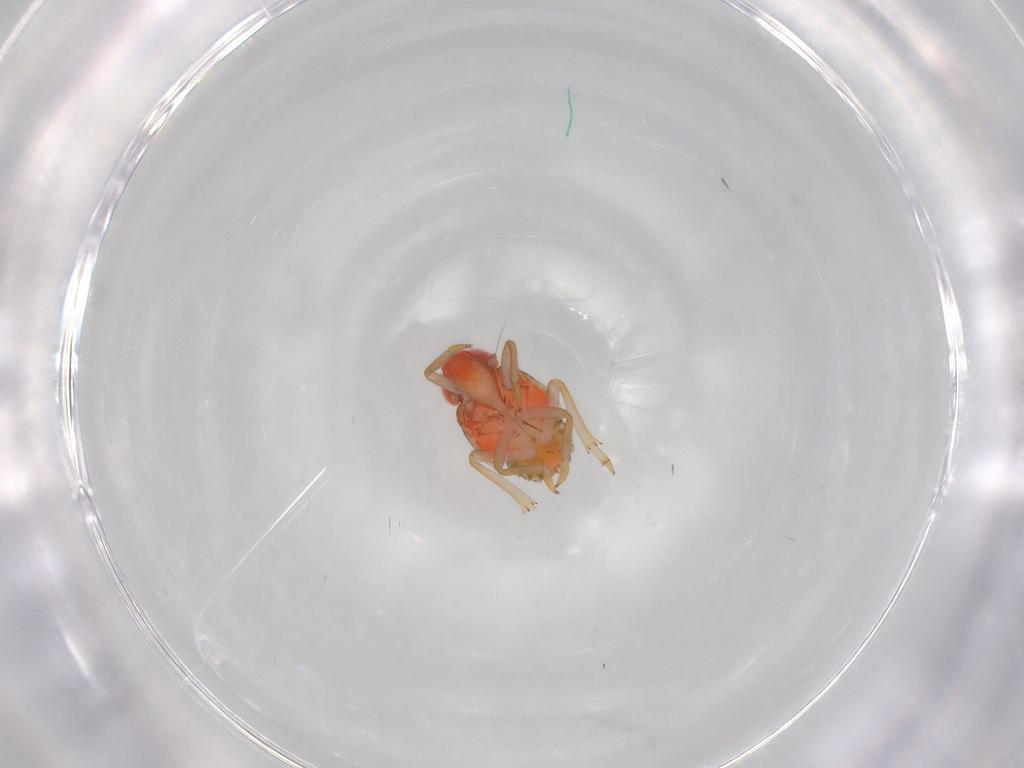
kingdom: Animalia
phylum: Arthropoda
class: Insecta
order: Hemiptera
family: Issidae
